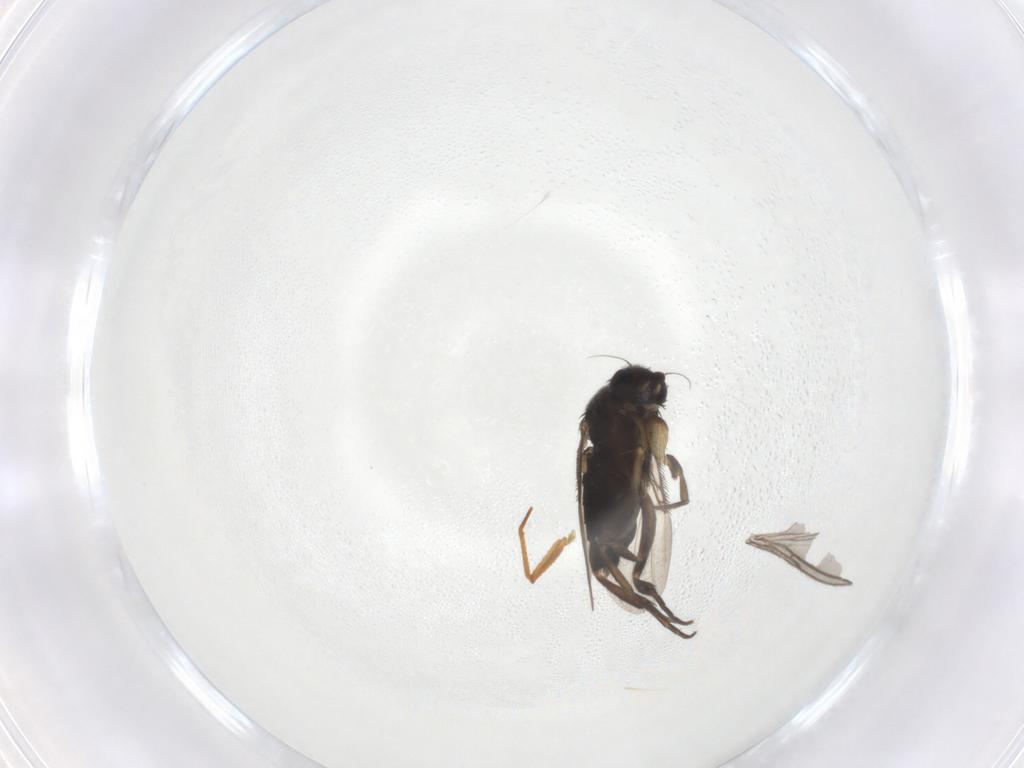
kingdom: Animalia
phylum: Arthropoda
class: Insecta
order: Diptera
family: Phoridae
